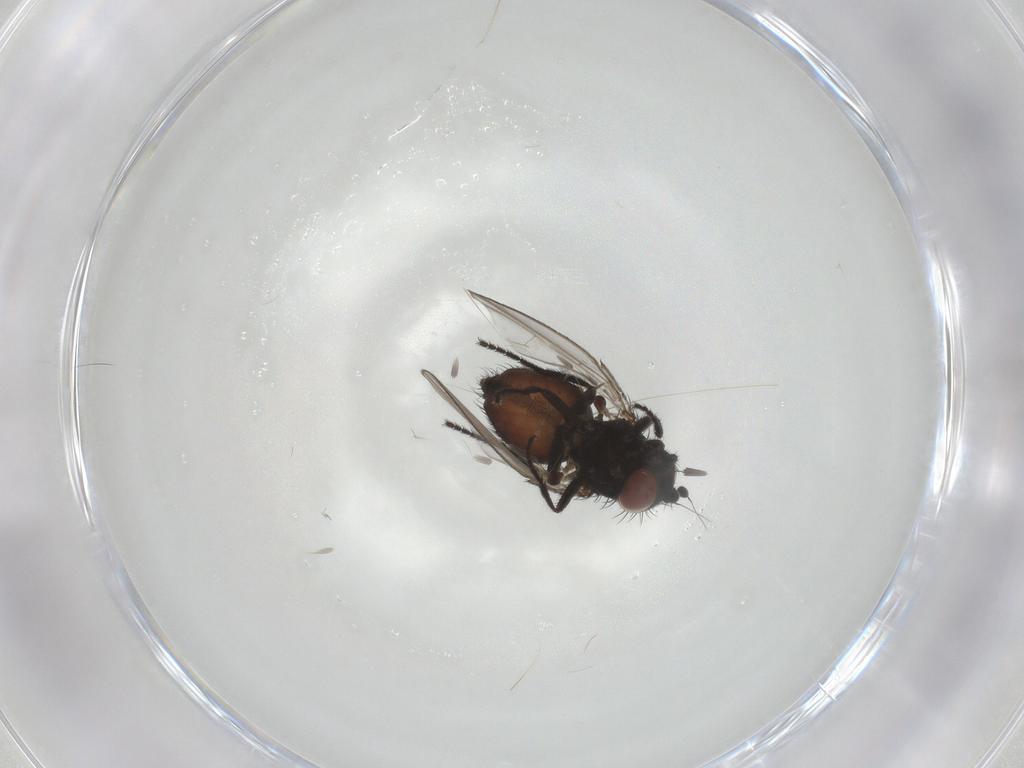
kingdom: Animalia
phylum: Arthropoda
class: Insecta
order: Diptera
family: Milichiidae
